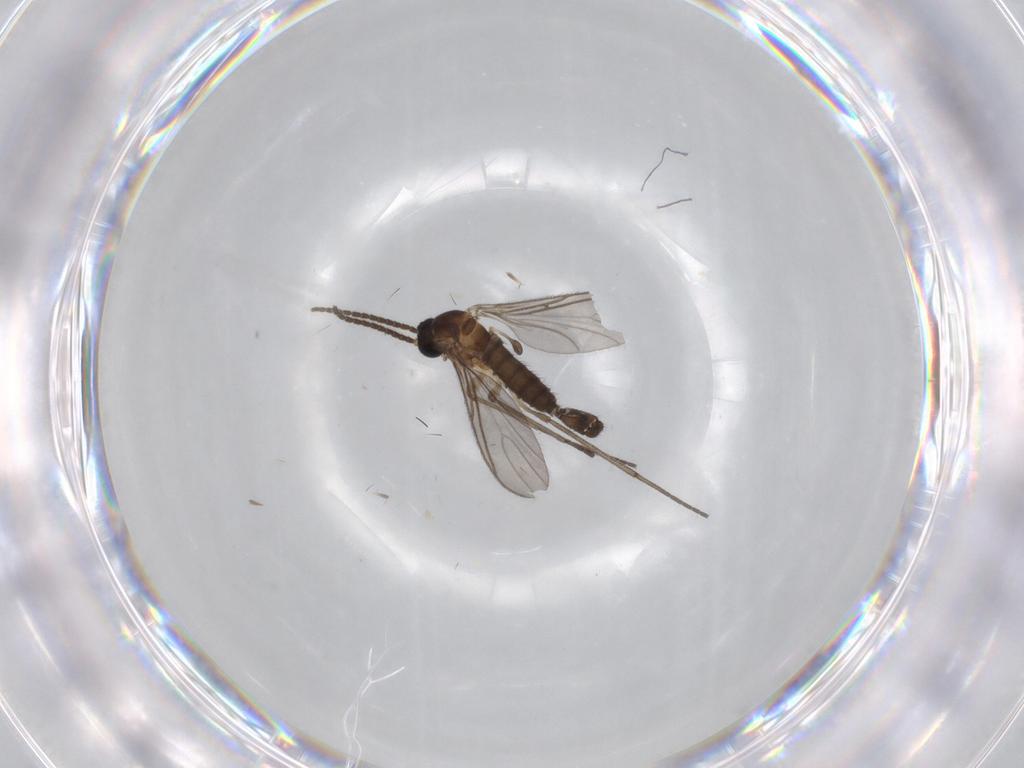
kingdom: Animalia
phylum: Arthropoda
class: Insecta
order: Diptera
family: Sciaridae
